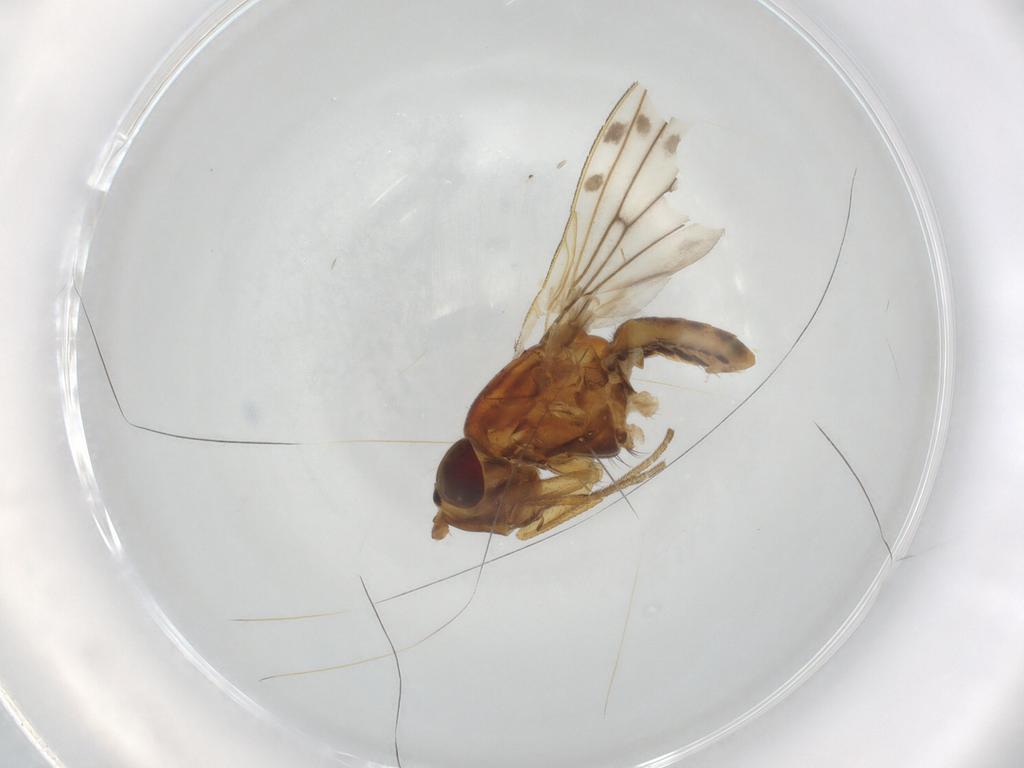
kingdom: Animalia
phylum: Arthropoda
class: Insecta
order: Diptera
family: Lauxaniidae
